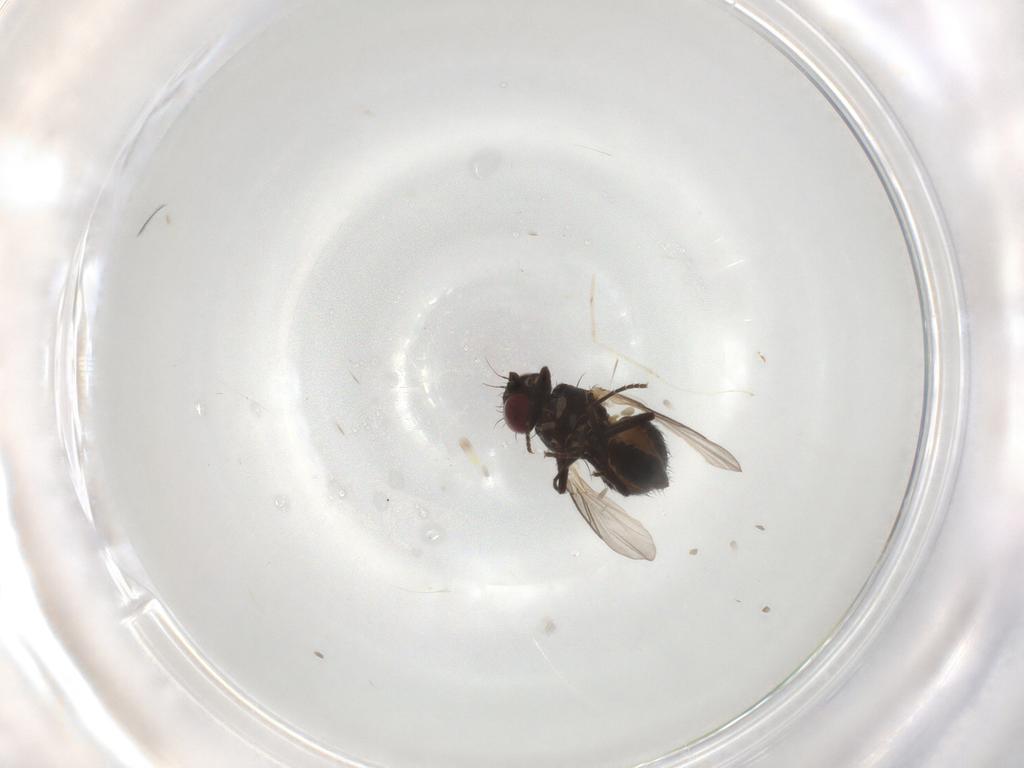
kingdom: Animalia
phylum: Arthropoda
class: Insecta
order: Diptera
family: Cecidomyiidae
